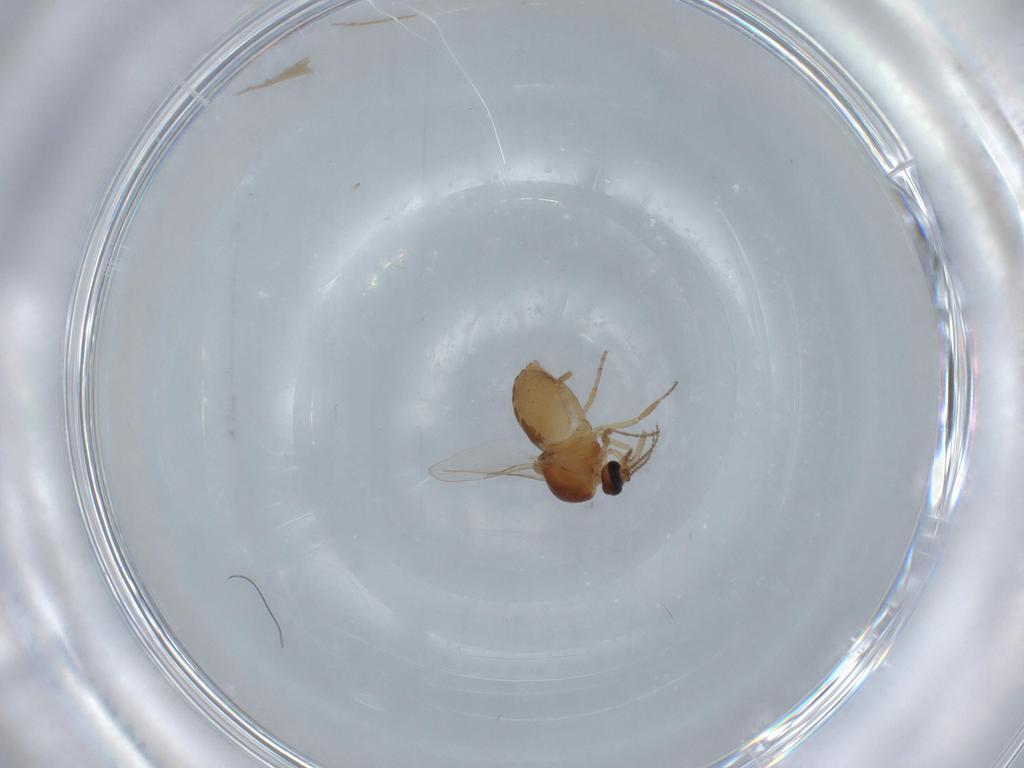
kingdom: Animalia
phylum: Arthropoda
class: Insecta
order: Diptera
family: Ceratopogonidae
